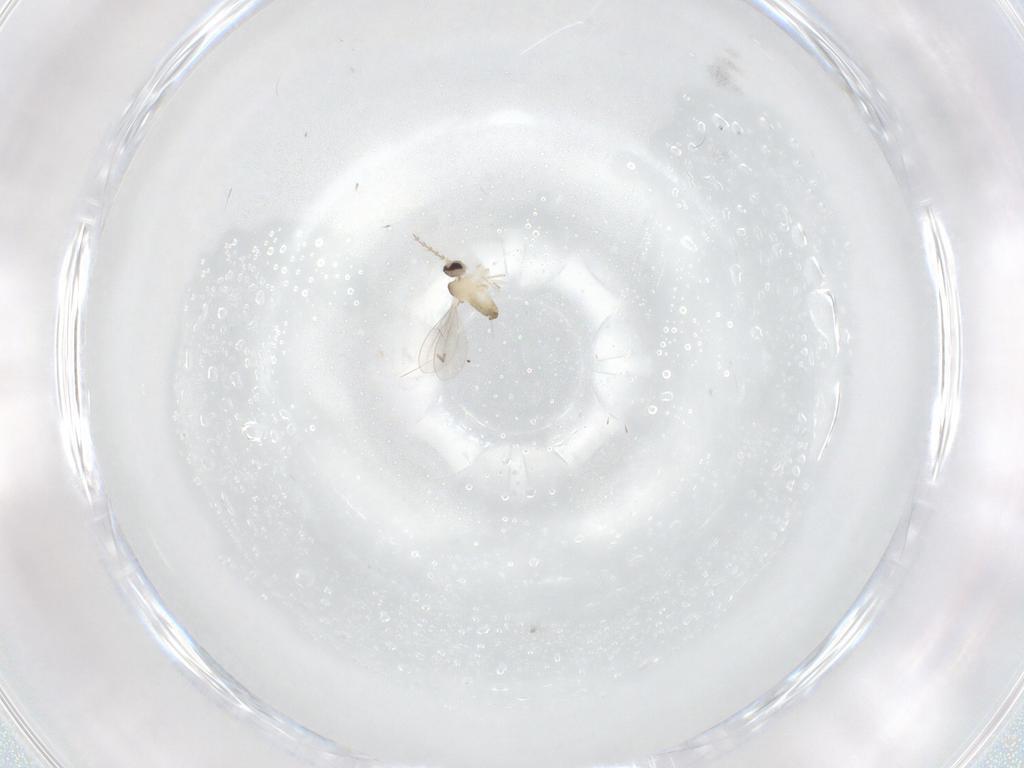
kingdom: Animalia
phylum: Arthropoda
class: Insecta
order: Diptera
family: Cecidomyiidae
